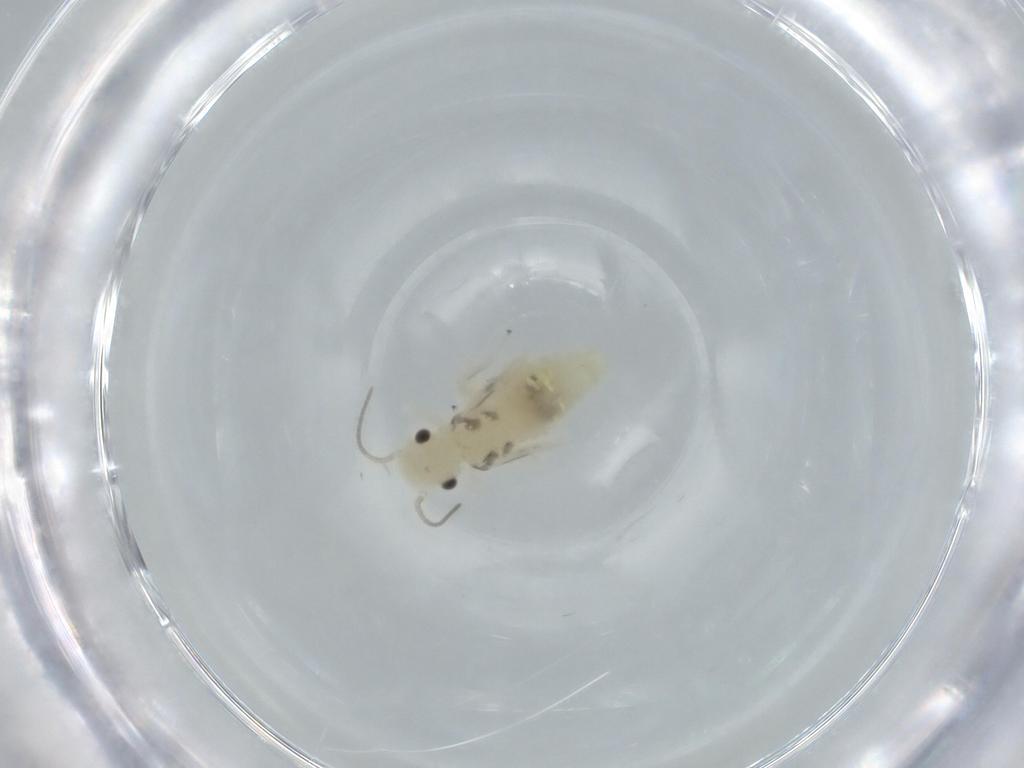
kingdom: Animalia
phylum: Arthropoda
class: Insecta
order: Psocodea
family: Caeciliusidae
